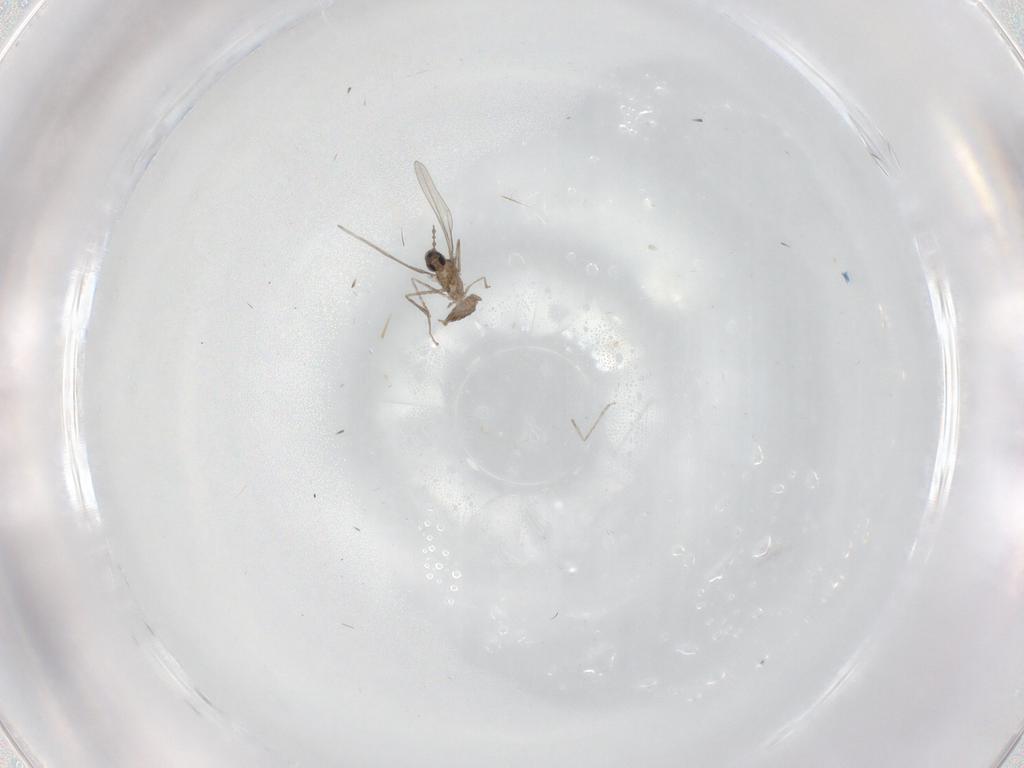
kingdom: Animalia
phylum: Arthropoda
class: Insecta
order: Diptera
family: Cecidomyiidae
